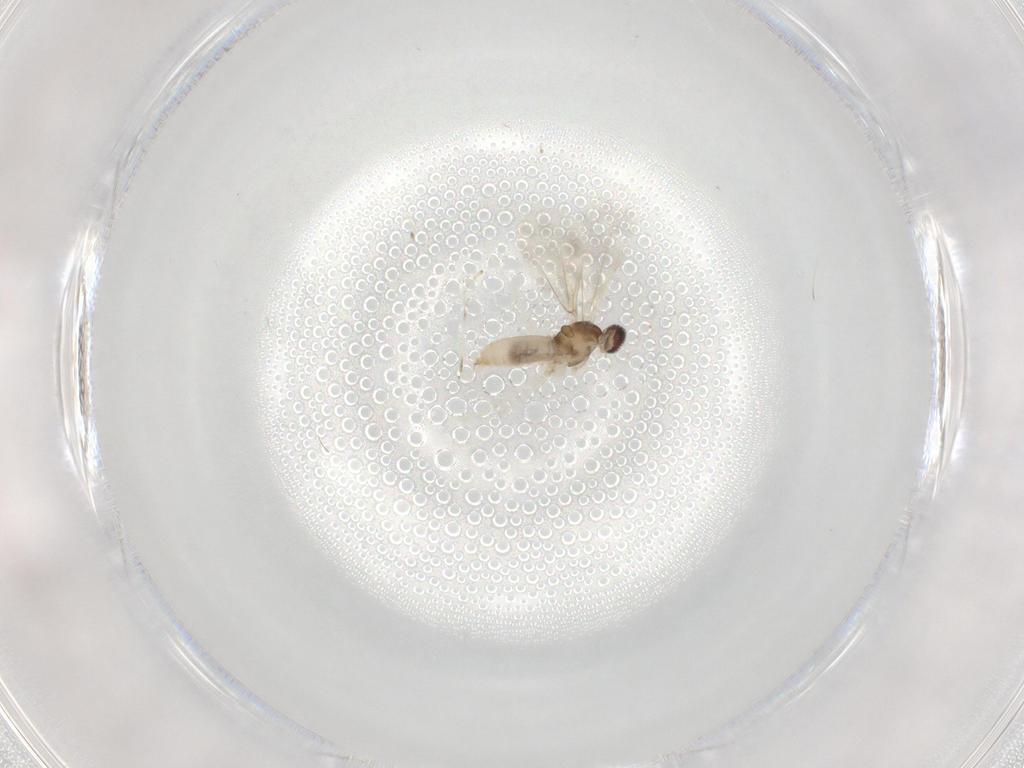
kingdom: Animalia
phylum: Arthropoda
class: Insecta
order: Diptera
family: Cecidomyiidae
